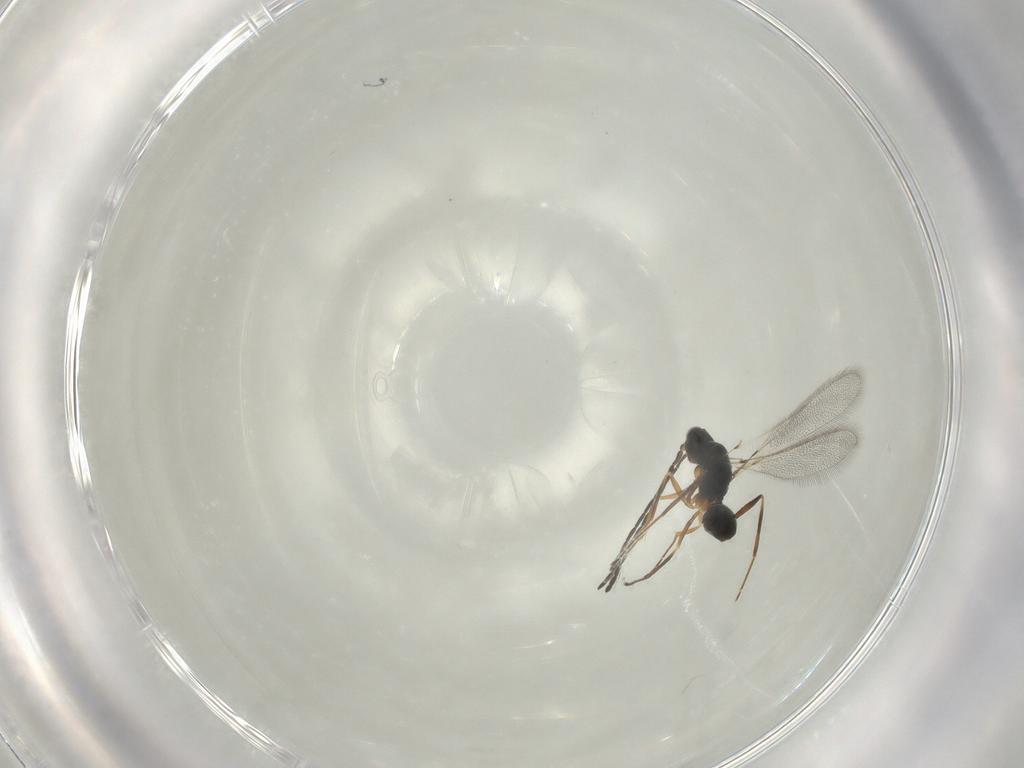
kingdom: Animalia
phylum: Arthropoda
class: Insecta
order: Hymenoptera
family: Mymaridae
